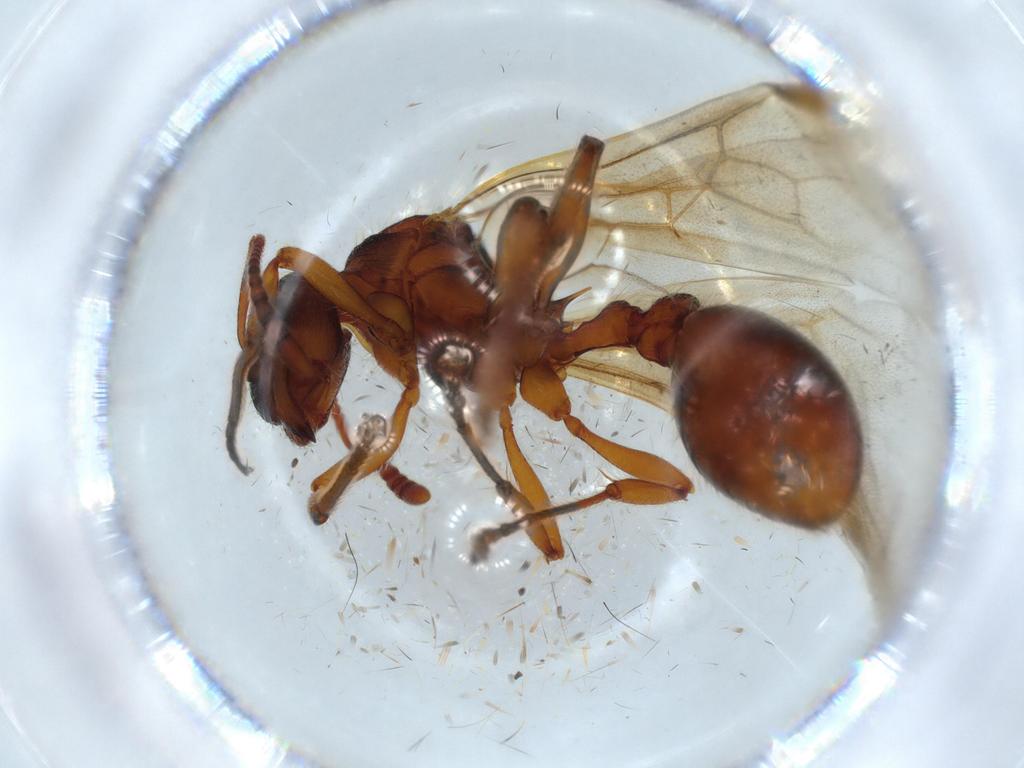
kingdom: Animalia
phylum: Arthropoda
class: Insecta
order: Hymenoptera
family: Formicidae
